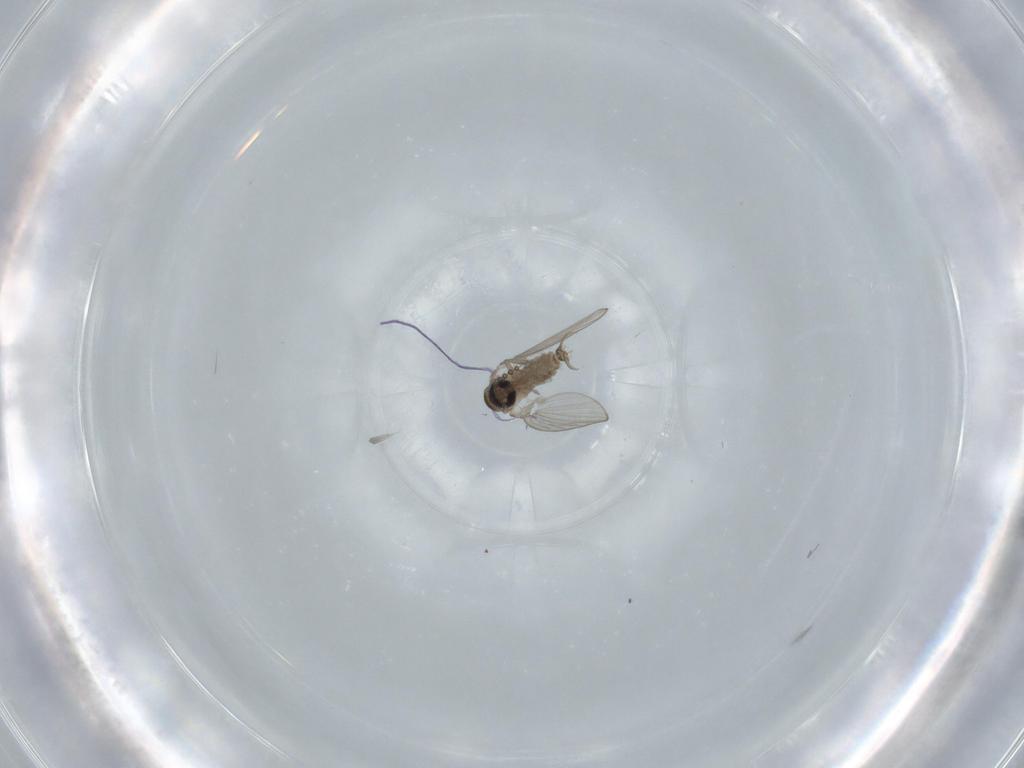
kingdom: Animalia
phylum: Arthropoda
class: Insecta
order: Diptera
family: Psychodidae
